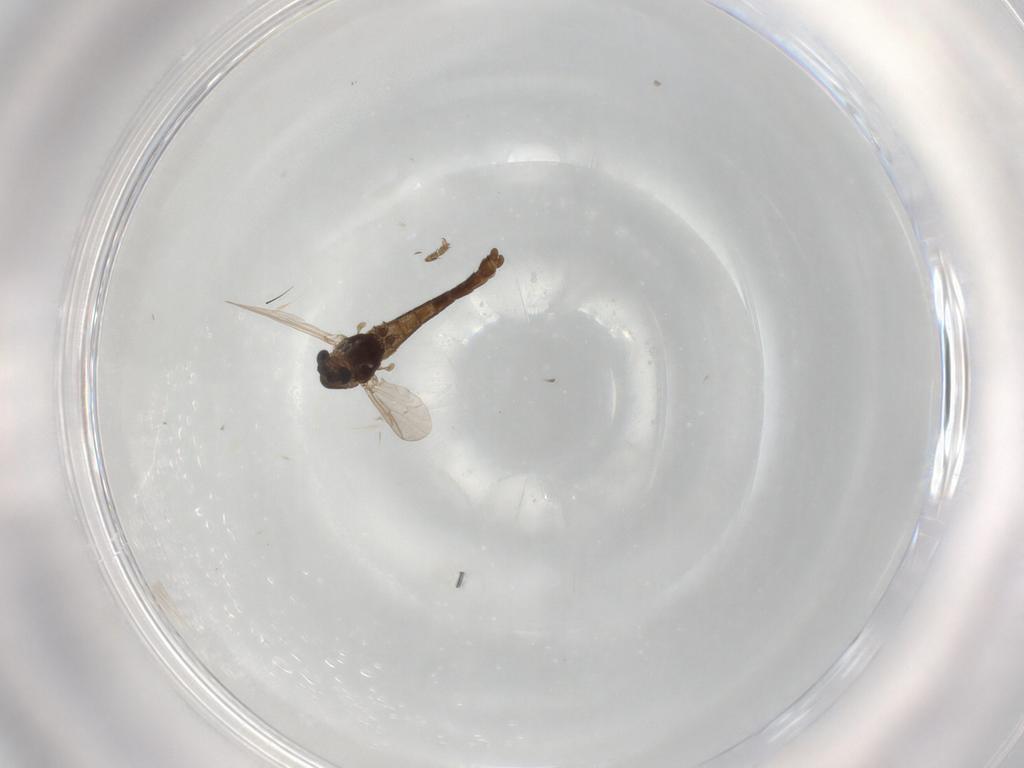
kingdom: Animalia
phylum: Arthropoda
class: Insecta
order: Diptera
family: Chironomidae
